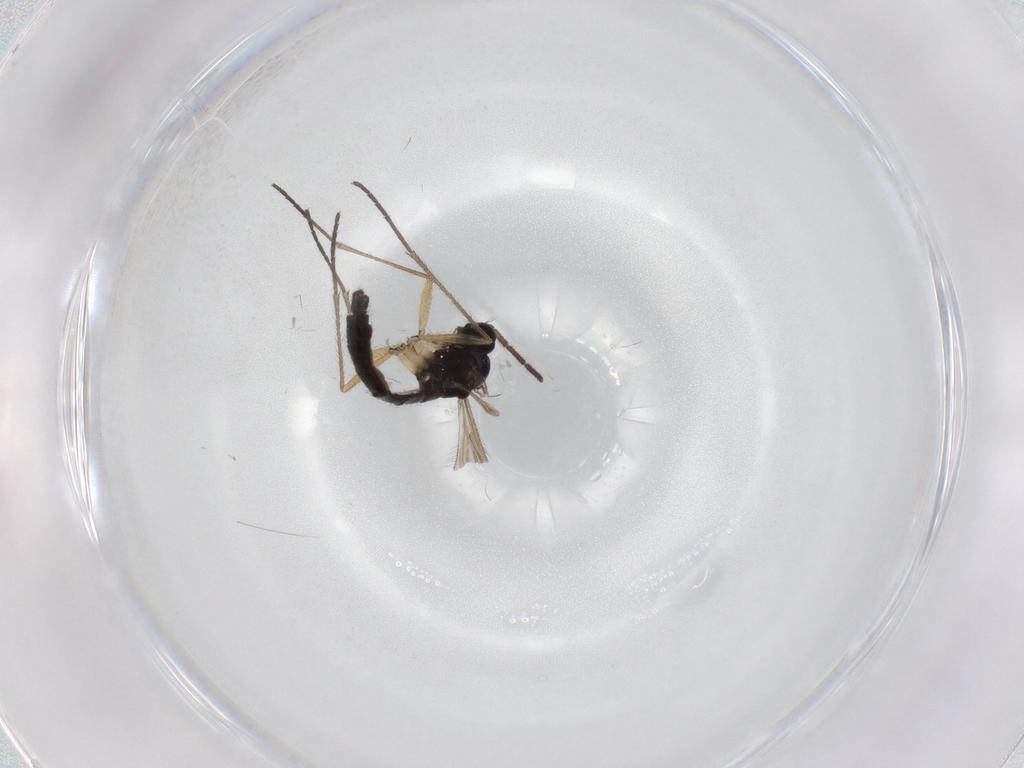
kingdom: Animalia
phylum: Arthropoda
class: Insecta
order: Diptera
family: Sciaridae
